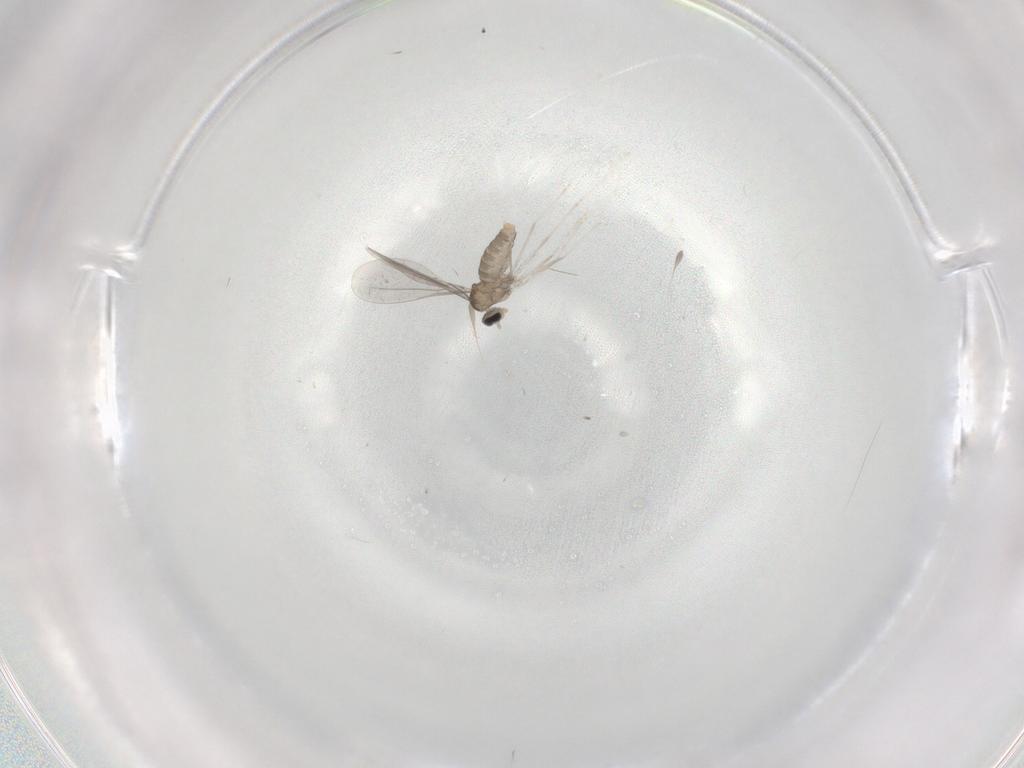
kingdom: Animalia
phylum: Arthropoda
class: Insecta
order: Diptera
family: Cecidomyiidae
